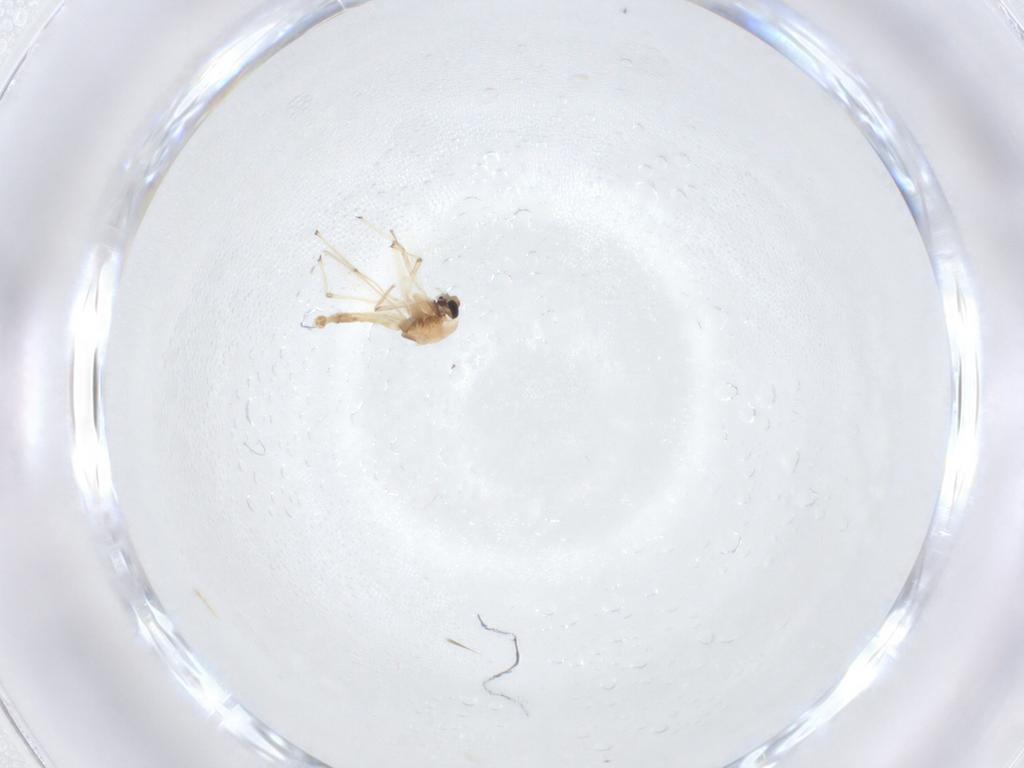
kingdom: Animalia
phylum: Arthropoda
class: Insecta
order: Diptera
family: Chironomidae
